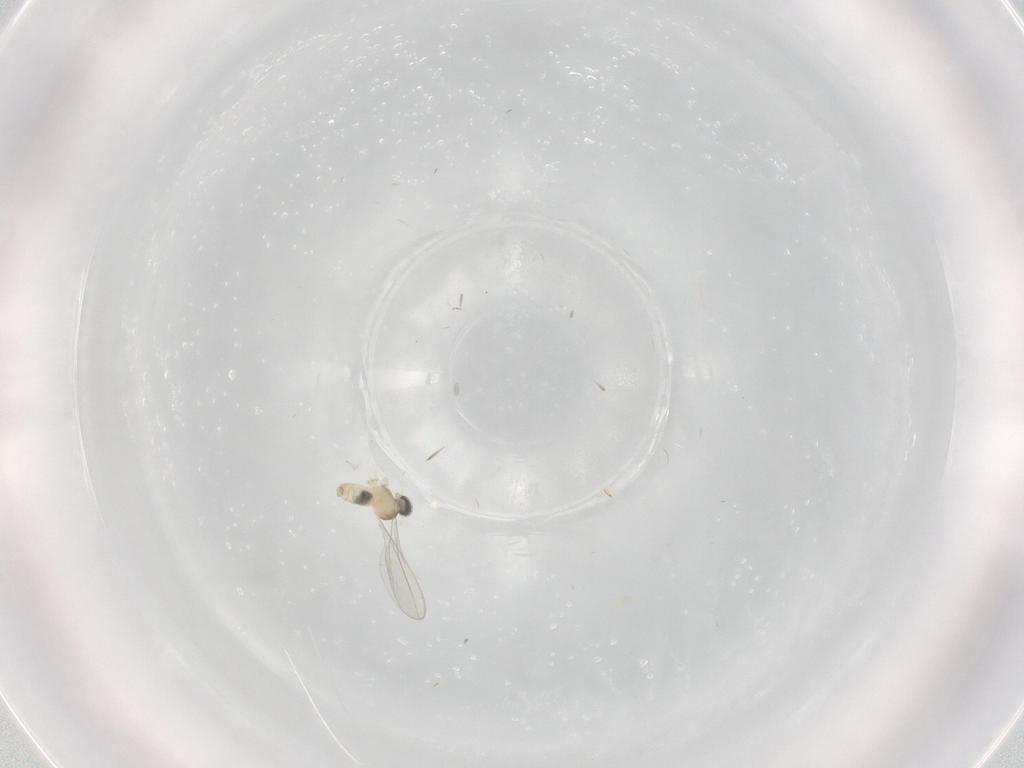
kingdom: Animalia
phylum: Arthropoda
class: Insecta
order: Diptera
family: Cecidomyiidae
